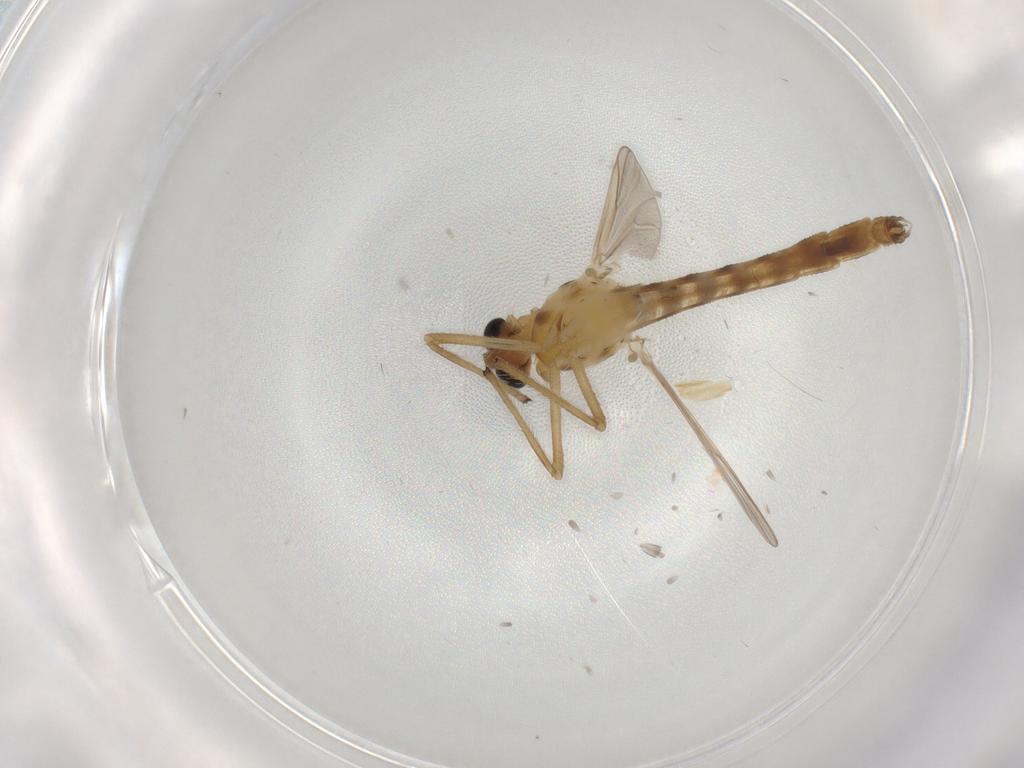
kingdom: Animalia
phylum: Arthropoda
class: Insecta
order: Diptera
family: Chironomidae
